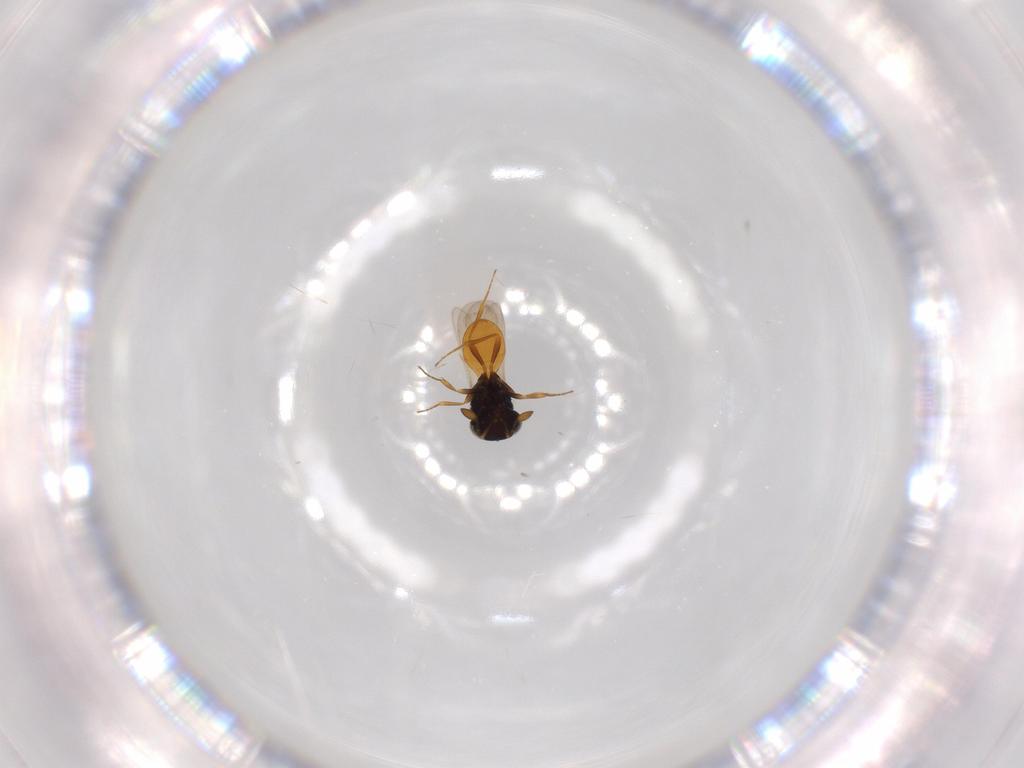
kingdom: Animalia
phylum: Arthropoda
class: Insecta
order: Hymenoptera
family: Scelionidae
